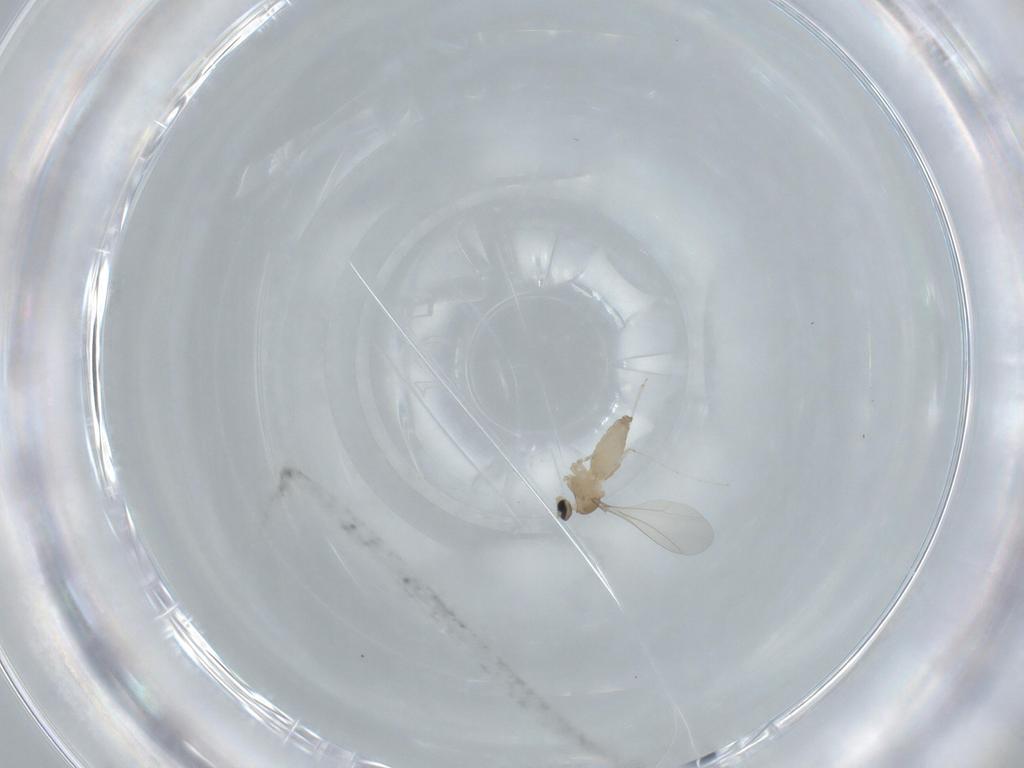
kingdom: Animalia
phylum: Arthropoda
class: Insecta
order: Diptera
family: Cecidomyiidae
